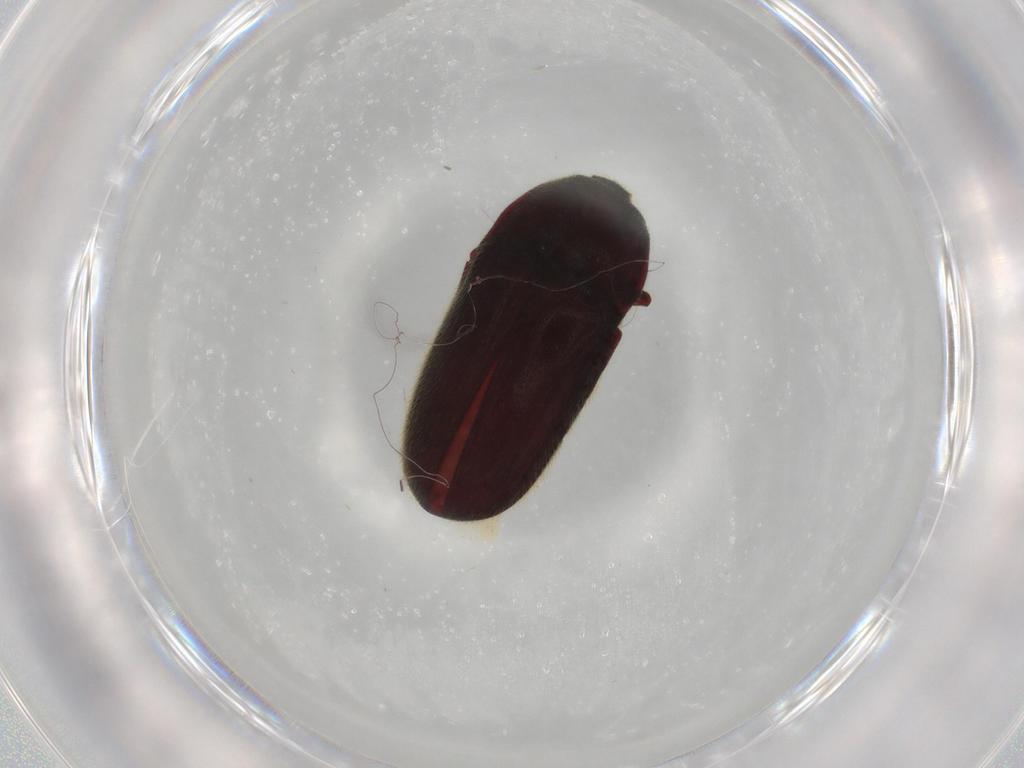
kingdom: Animalia
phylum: Arthropoda
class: Insecta
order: Coleoptera
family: Throscidae
